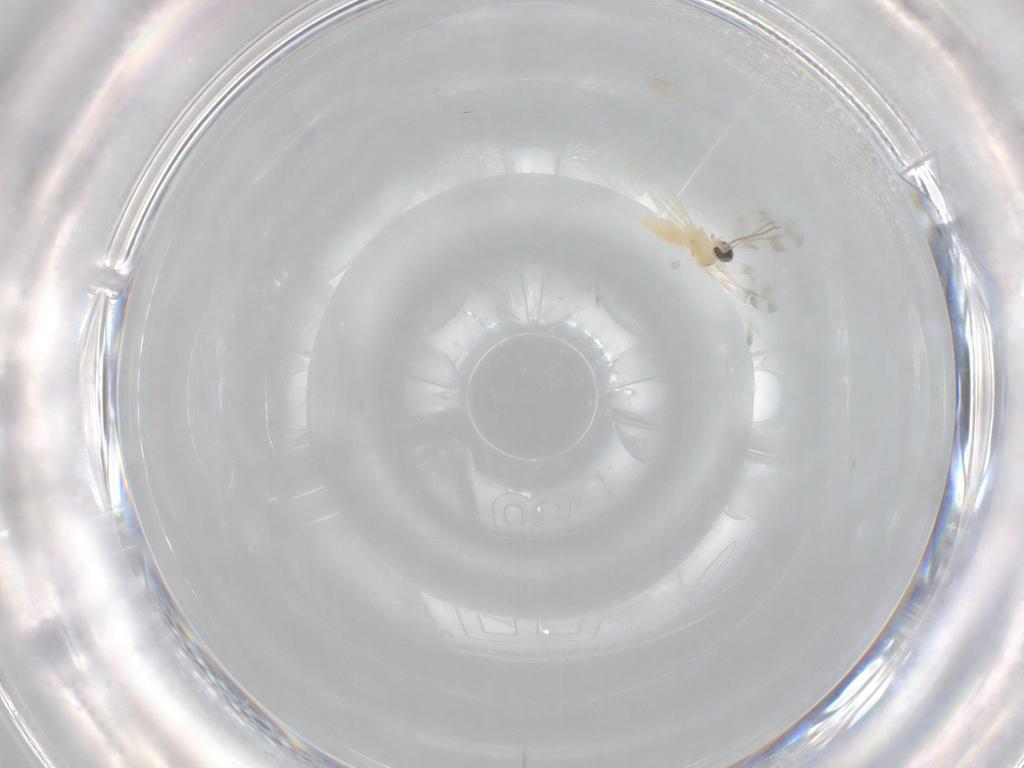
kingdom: Animalia
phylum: Arthropoda
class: Insecta
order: Diptera
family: Cecidomyiidae
